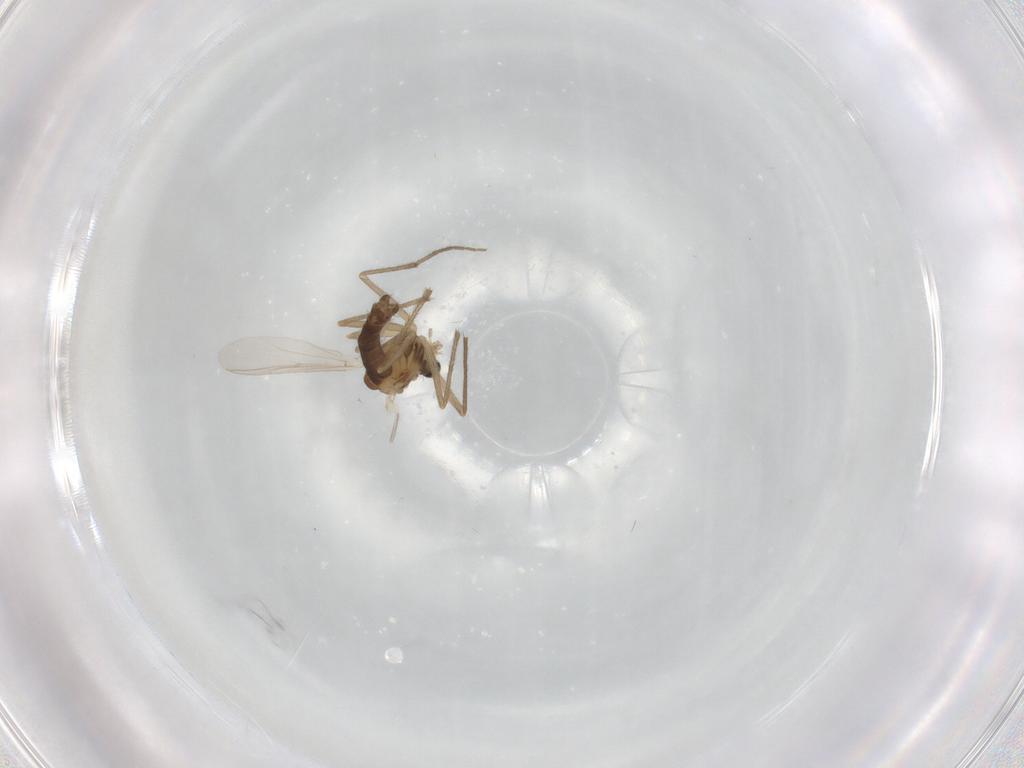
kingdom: Animalia
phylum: Arthropoda
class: Insecta
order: Diptera
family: Chironomidae
